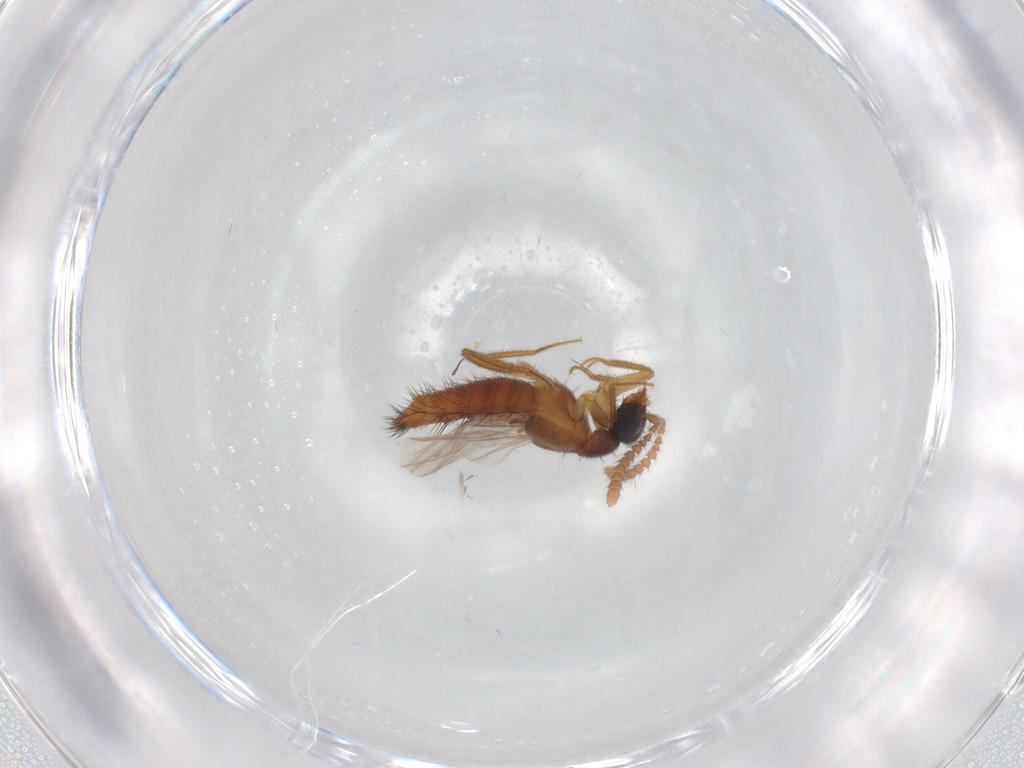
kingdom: Animalia
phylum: Arthropoda
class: Insecta
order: Coleoptera
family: Staphylinidae
